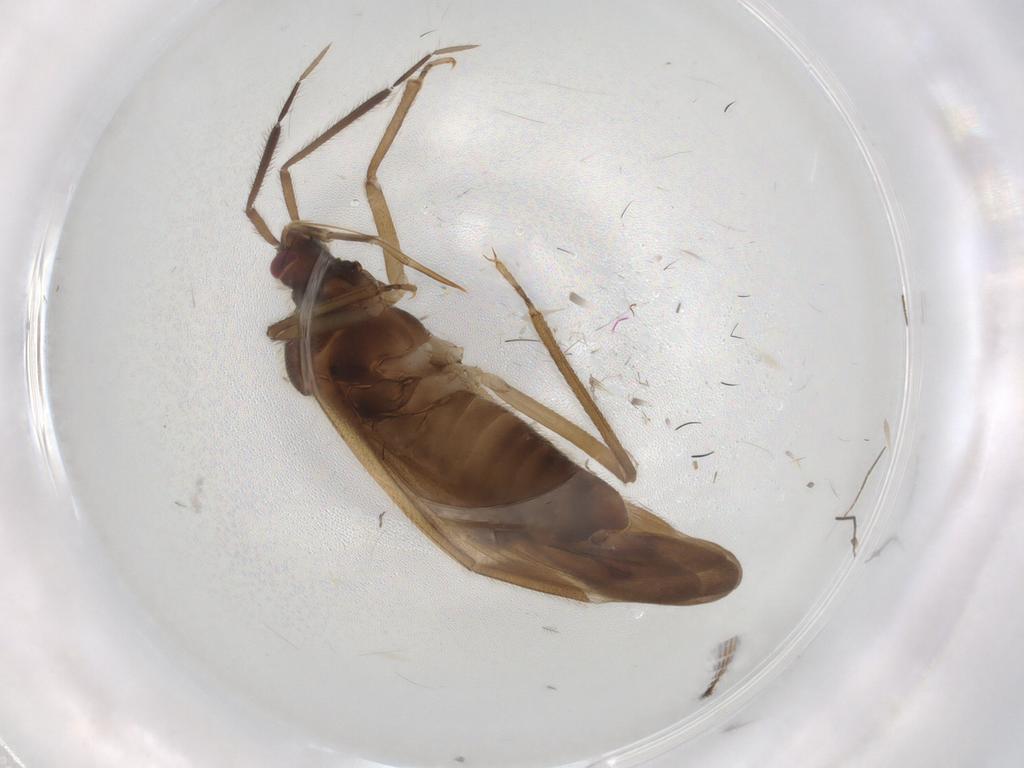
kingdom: Animalia
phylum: Arthropoda
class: Insecta
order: Hemiptera
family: Miridae
